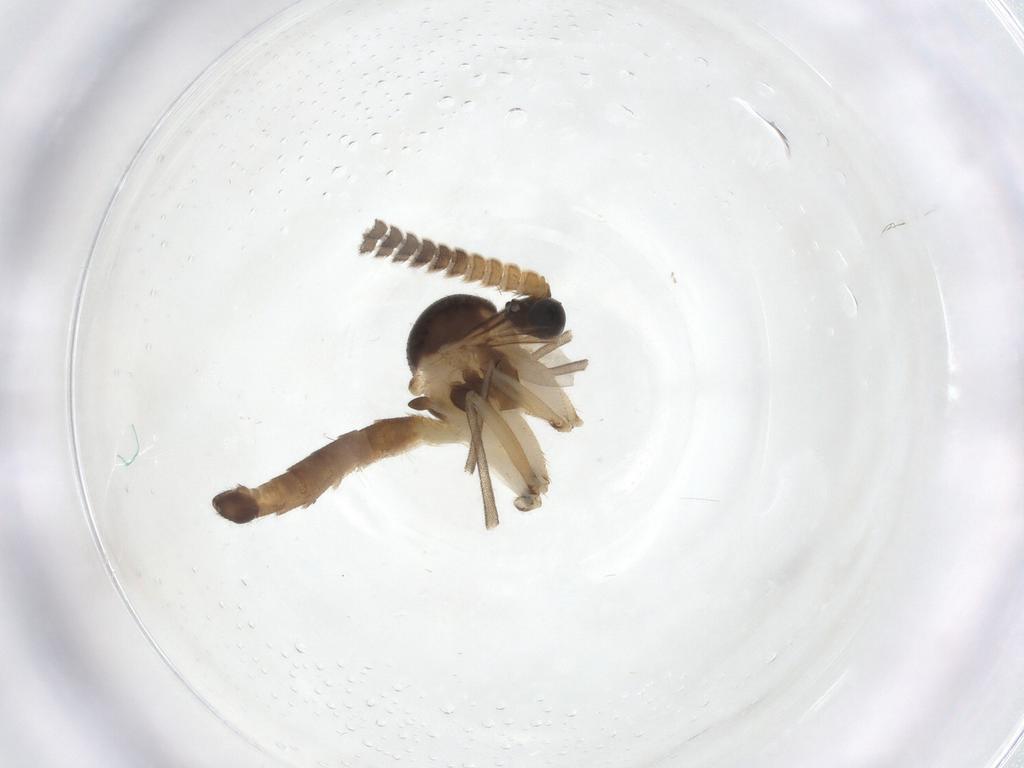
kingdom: Animalia
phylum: Arthropoda
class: Insecta
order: Diptera
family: Mycetophilidae
